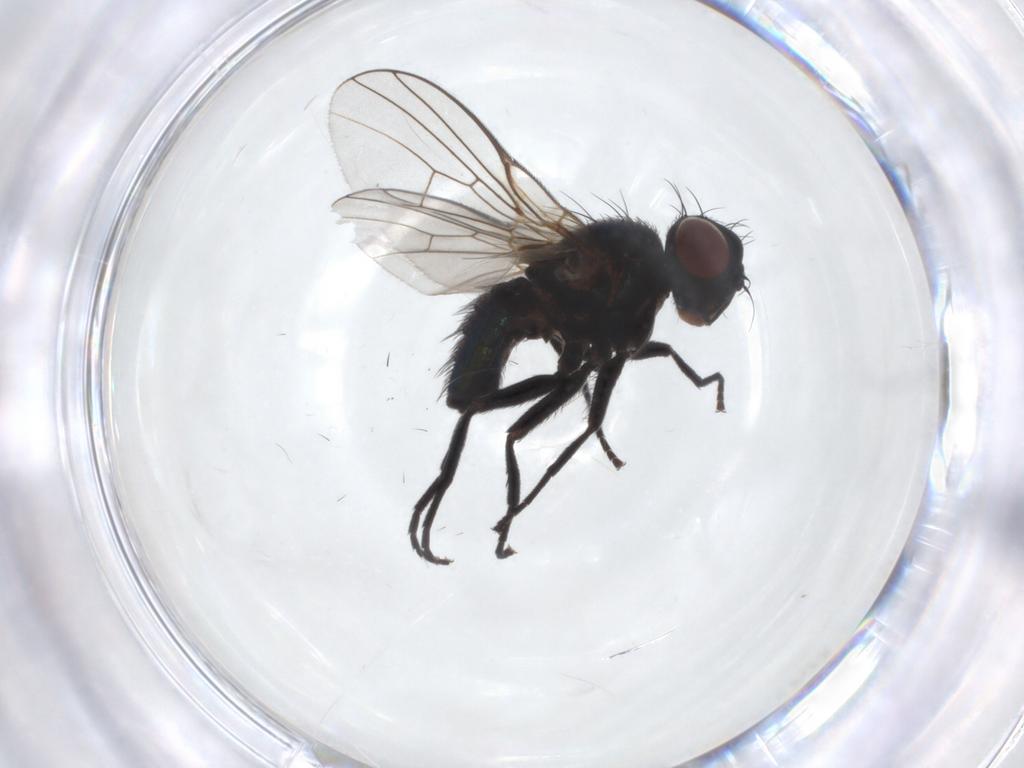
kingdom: Animalia
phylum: Arthropoda
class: Insecta
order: Diptera
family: Agromyzidae
